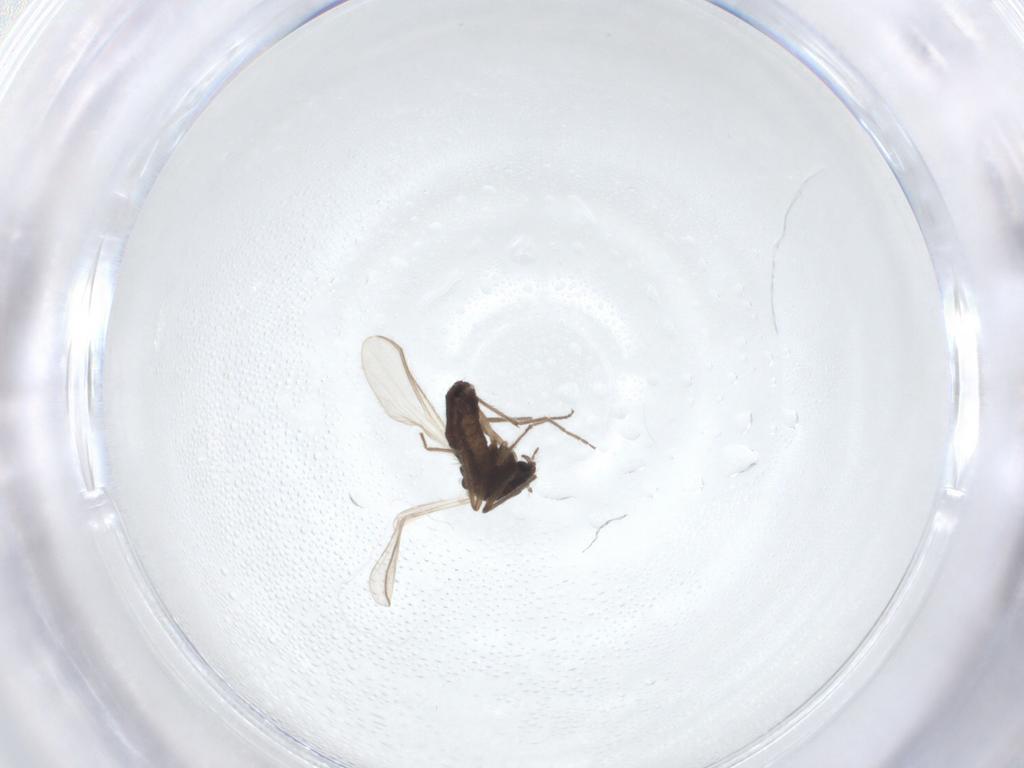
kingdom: Animalia
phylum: Arthropoda
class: Insecta
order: Diptera
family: Chironomidae
